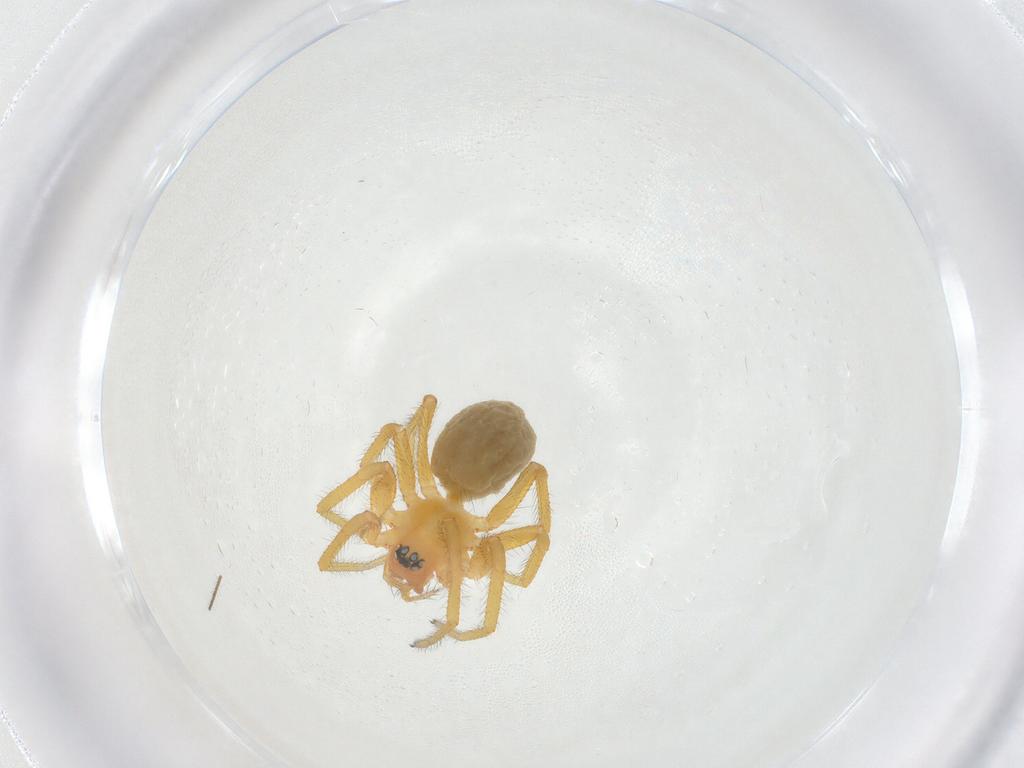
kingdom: Animalia
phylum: Arthropoda
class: Arachnida
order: Araneae
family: Linyphiidae
